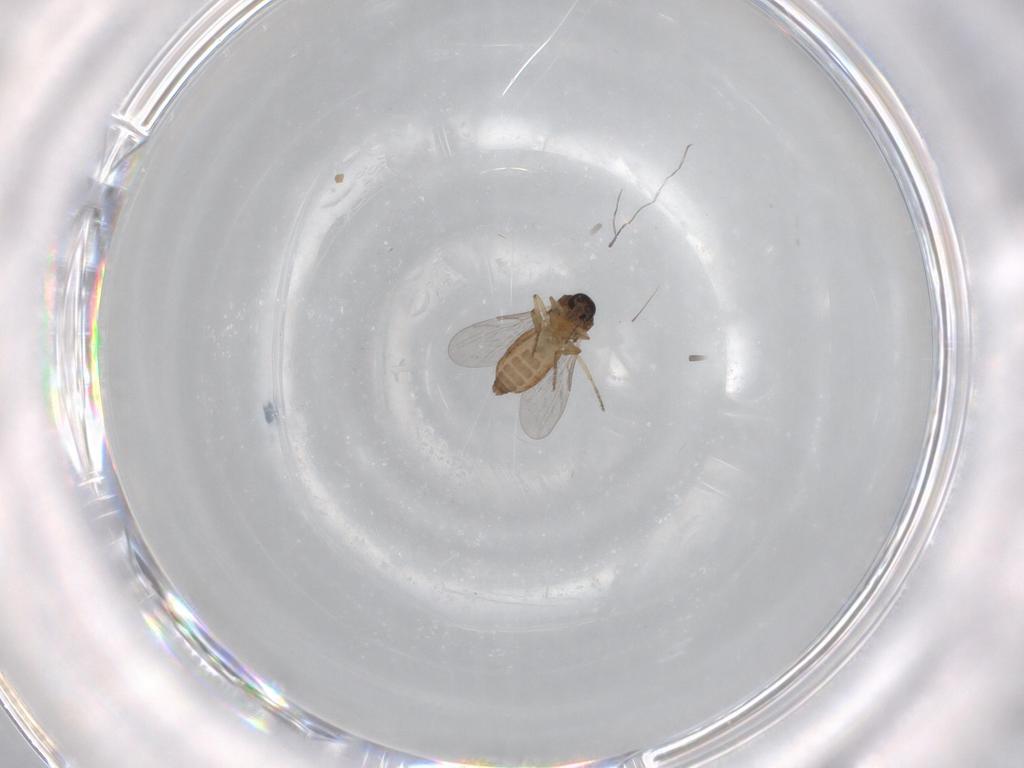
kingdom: Animalia
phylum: Arthropoda
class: Insecta
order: Diptera
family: Ceratopogonidae
